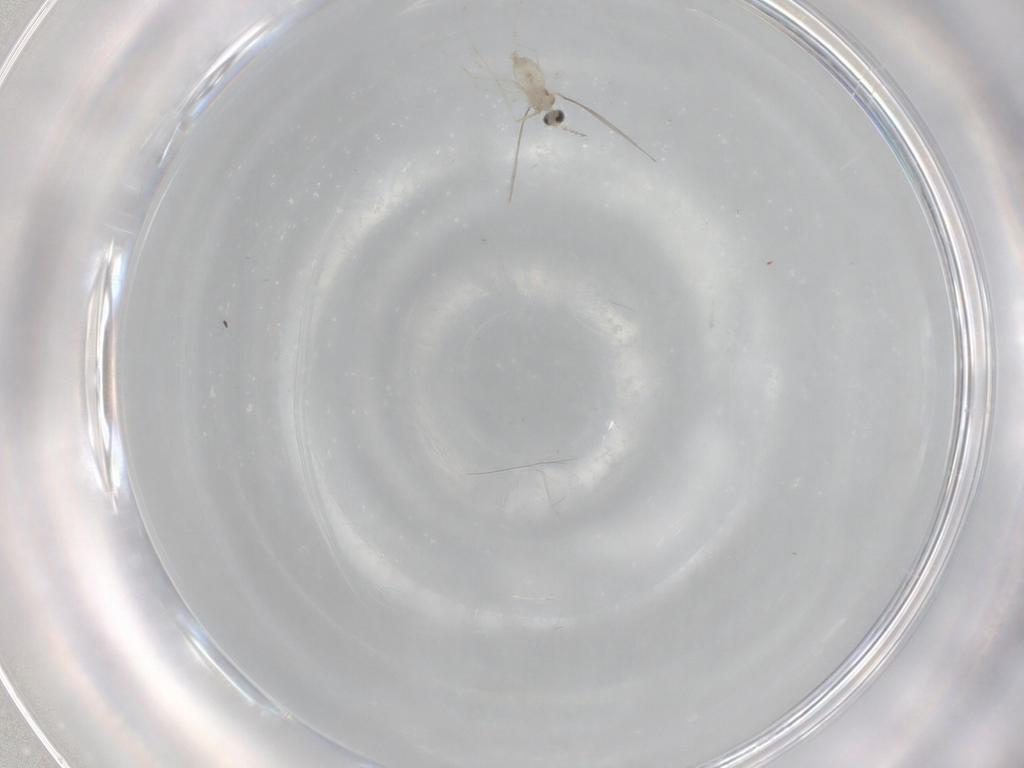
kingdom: Animalia
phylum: Arthropoda
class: Insecta
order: Diptera
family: Cecidomyiidae
